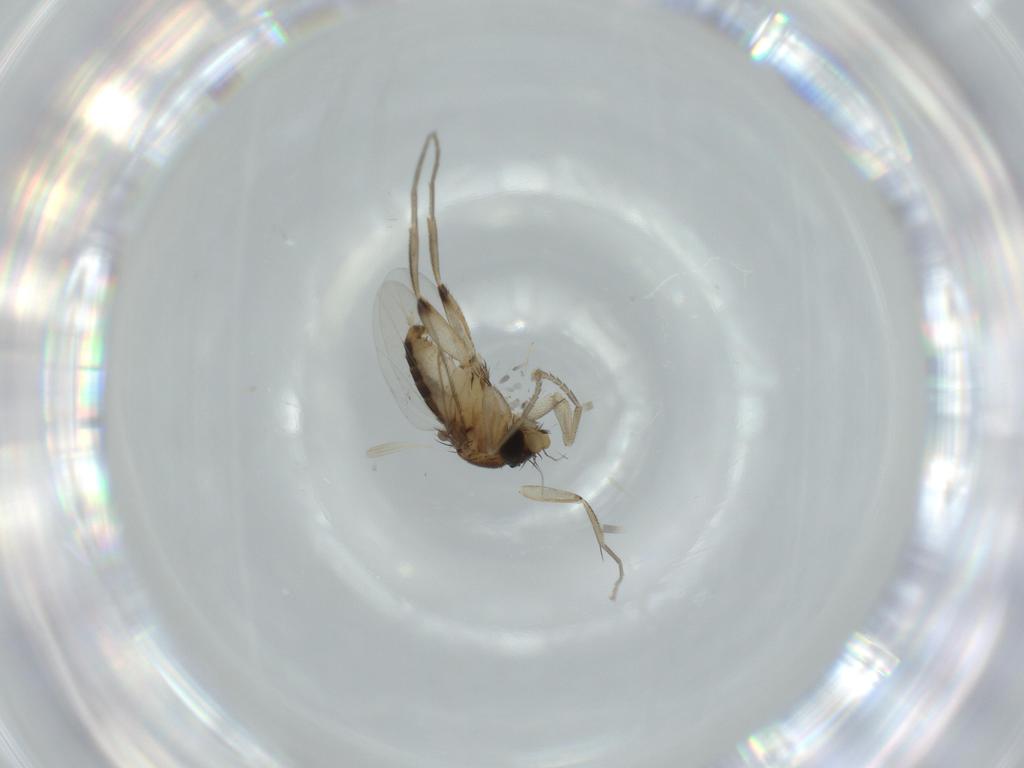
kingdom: Animalia
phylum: Arthropoda
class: Insecta
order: Diptera
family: Phoridae
